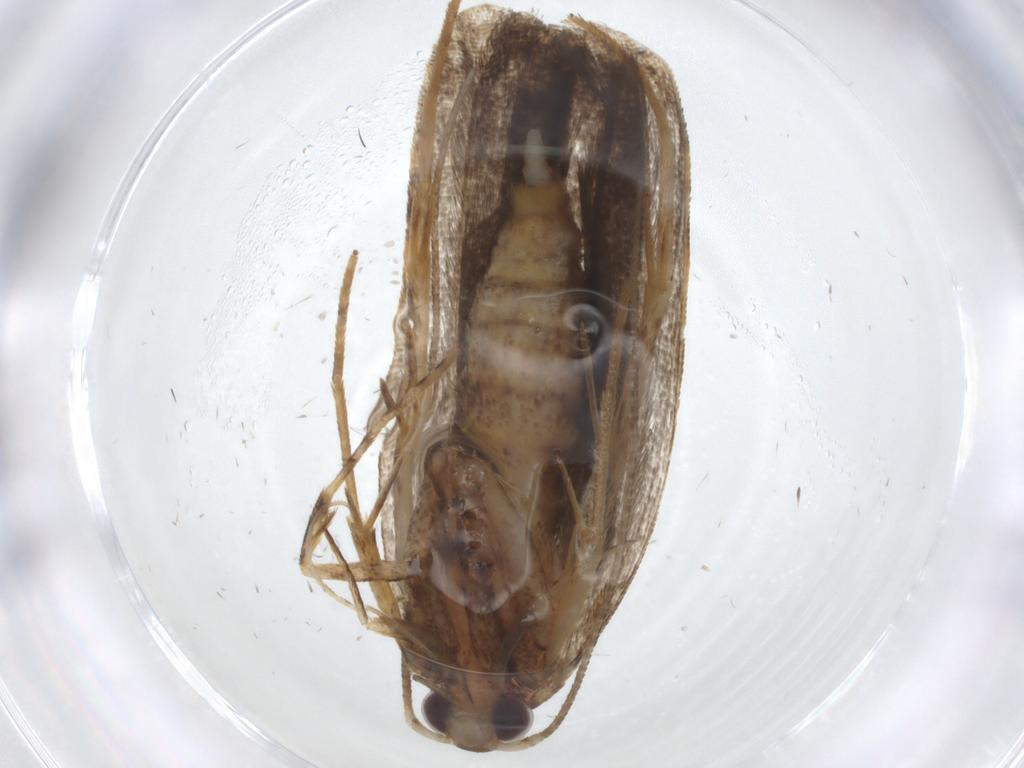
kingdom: Animalia
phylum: Arthropoda
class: Insecta
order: Lepidoptera
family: Autostichidae
